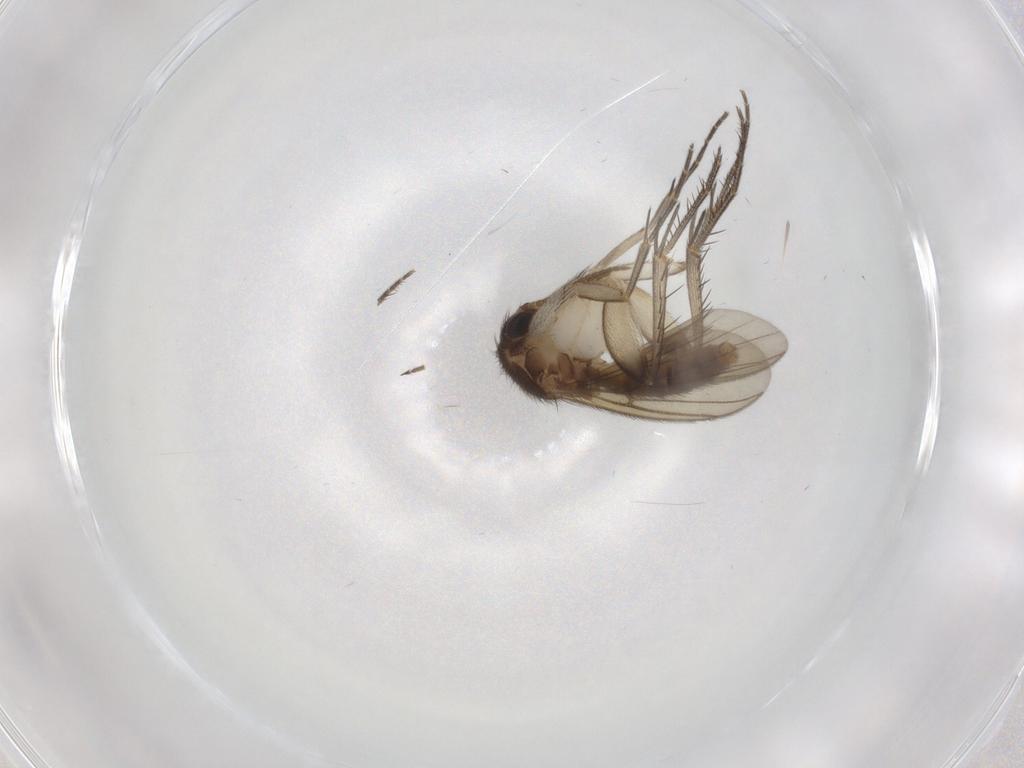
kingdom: Animalia
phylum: Arthropoda
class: Insecta
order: Diptera
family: Mycetophilidae
